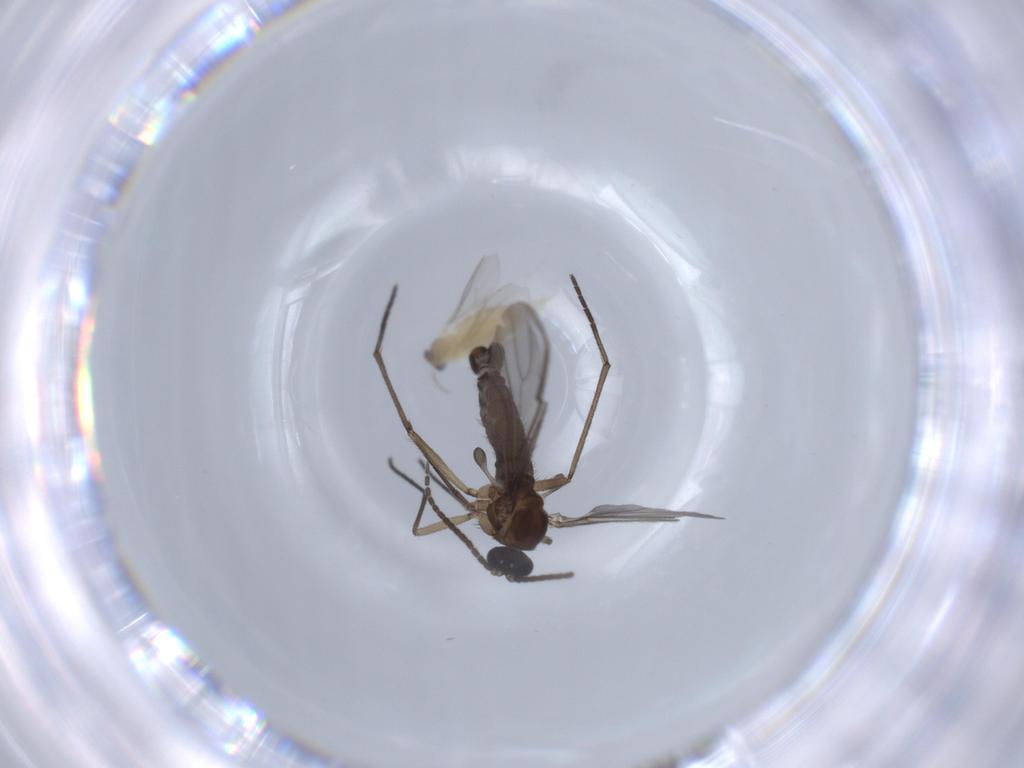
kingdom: Animalia
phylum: Arthropoda
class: Insecta
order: Diptera
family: Cecidomyiidae
